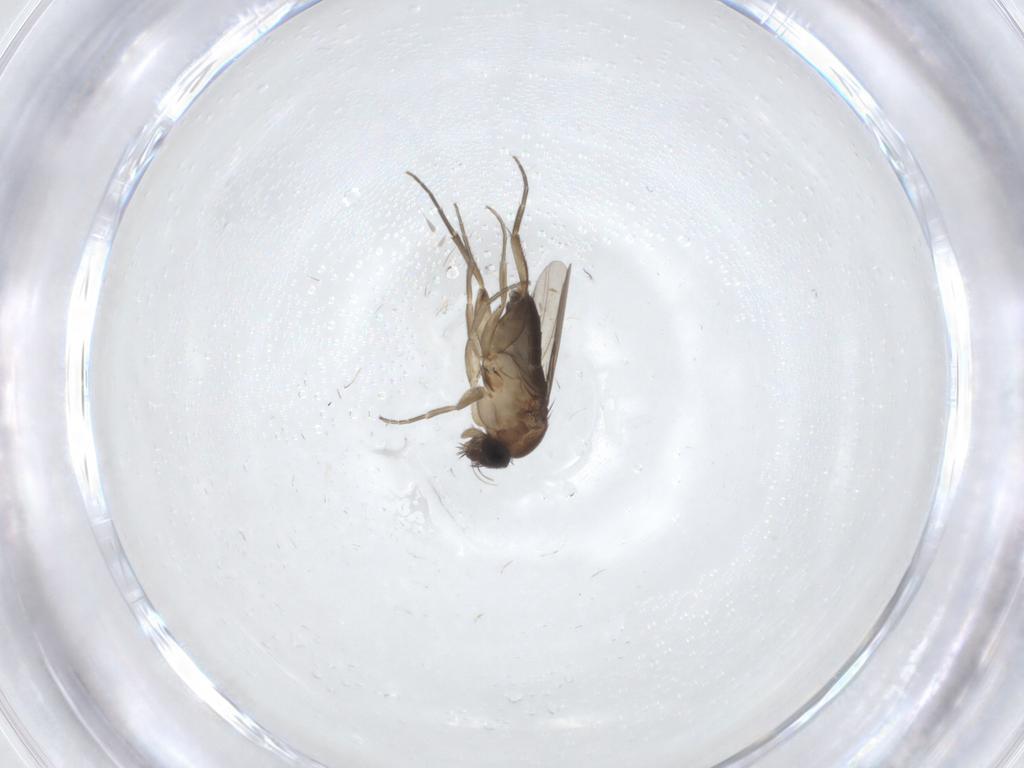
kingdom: Animalia
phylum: Arthropoda
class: Insecta
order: Diptera
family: Phoridae
